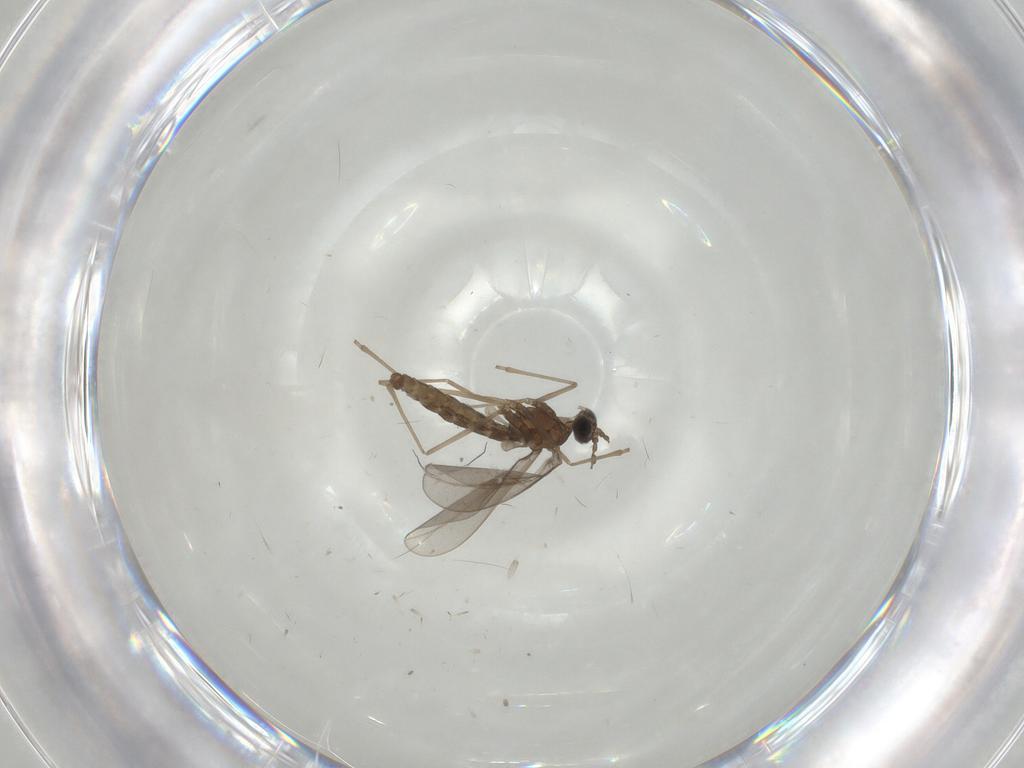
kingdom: Animalia
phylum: Arthropoda
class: Insecta
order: Diptera
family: Cecidomyiidae
